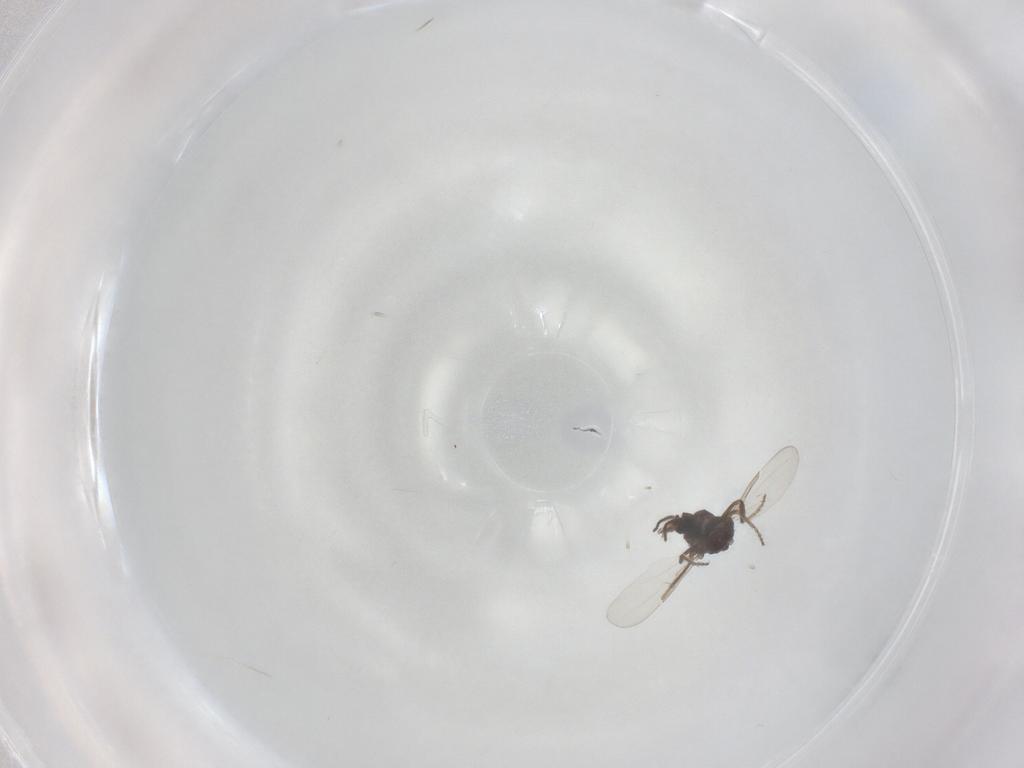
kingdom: Animalia
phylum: Arthropoda
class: Insecta
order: Diptera
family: Ceratopogonidae
